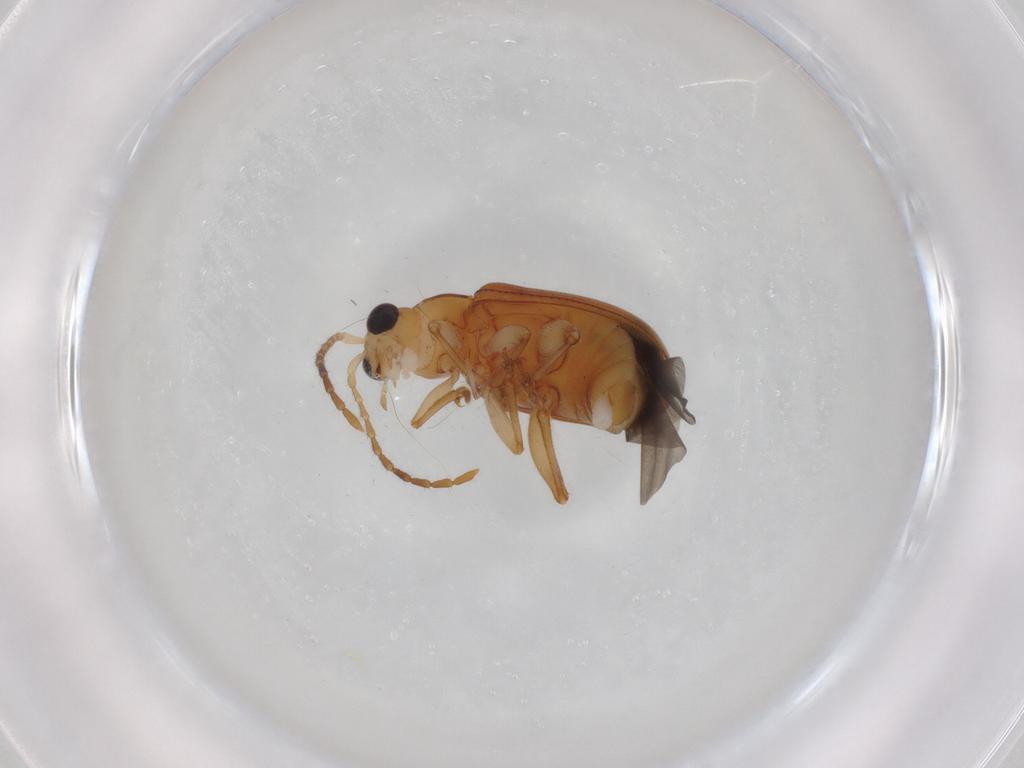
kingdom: Animalia
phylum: Arthropoda
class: Insecta
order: Coleoptera
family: Chrysomelidae
